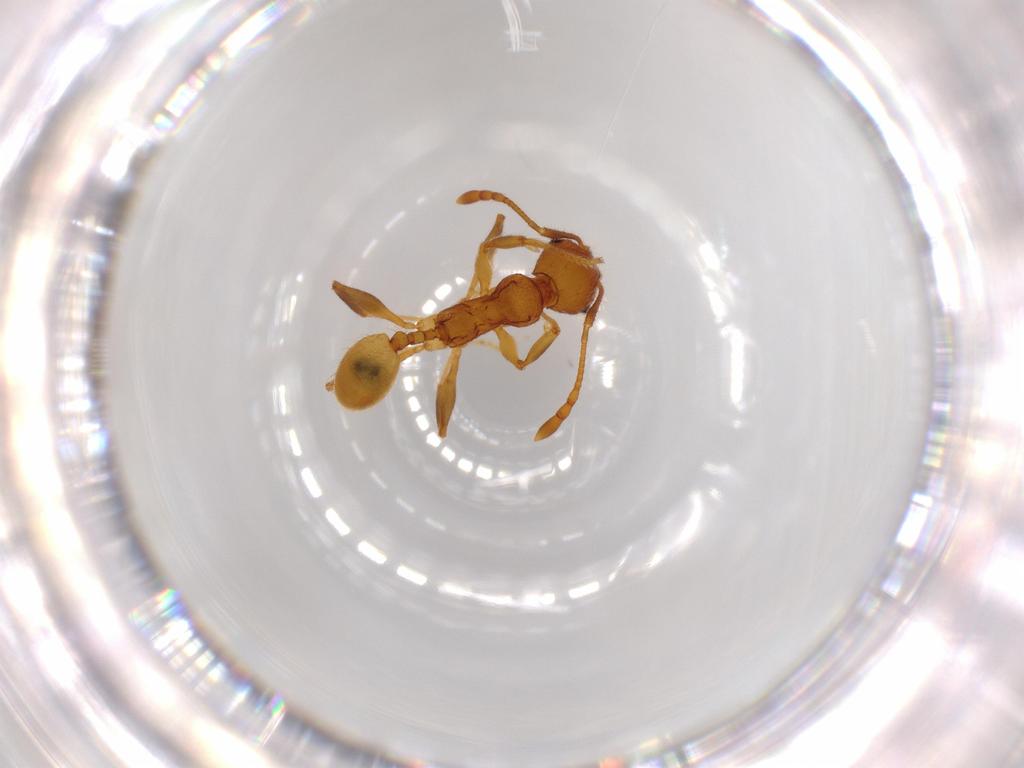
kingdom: Animalia
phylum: Arthropoda
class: Insecta
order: Hymenoptera
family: Formicidae
